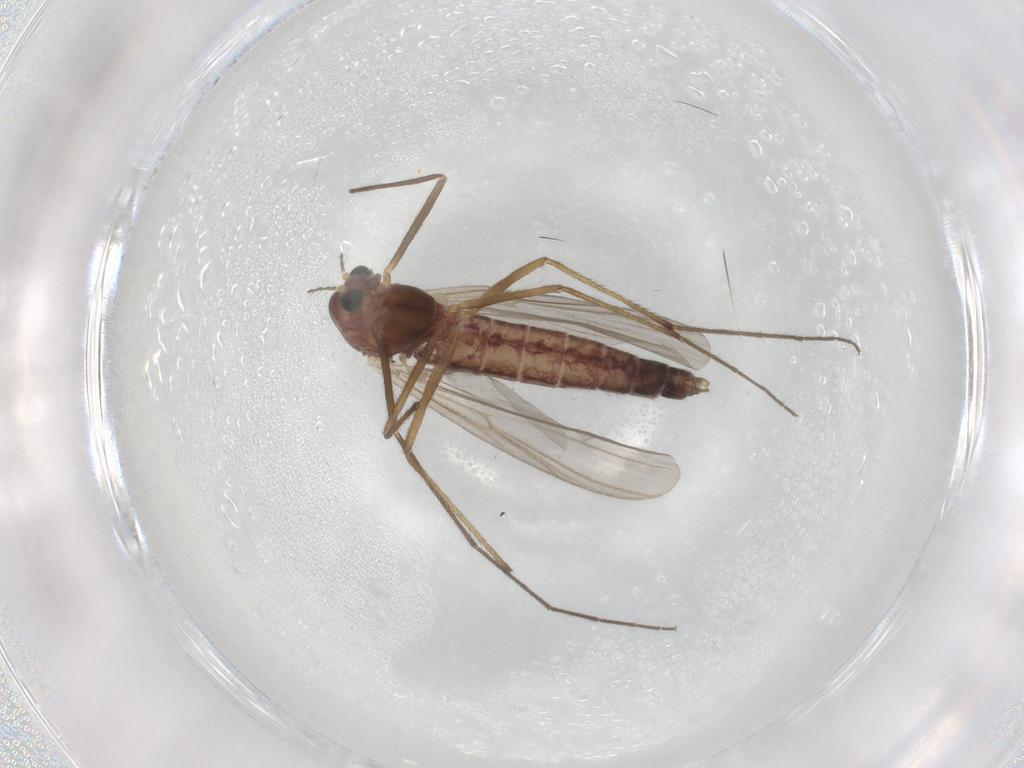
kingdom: Animalia
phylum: Arthropoda
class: Insecta
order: Diptera
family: Chironomidae
